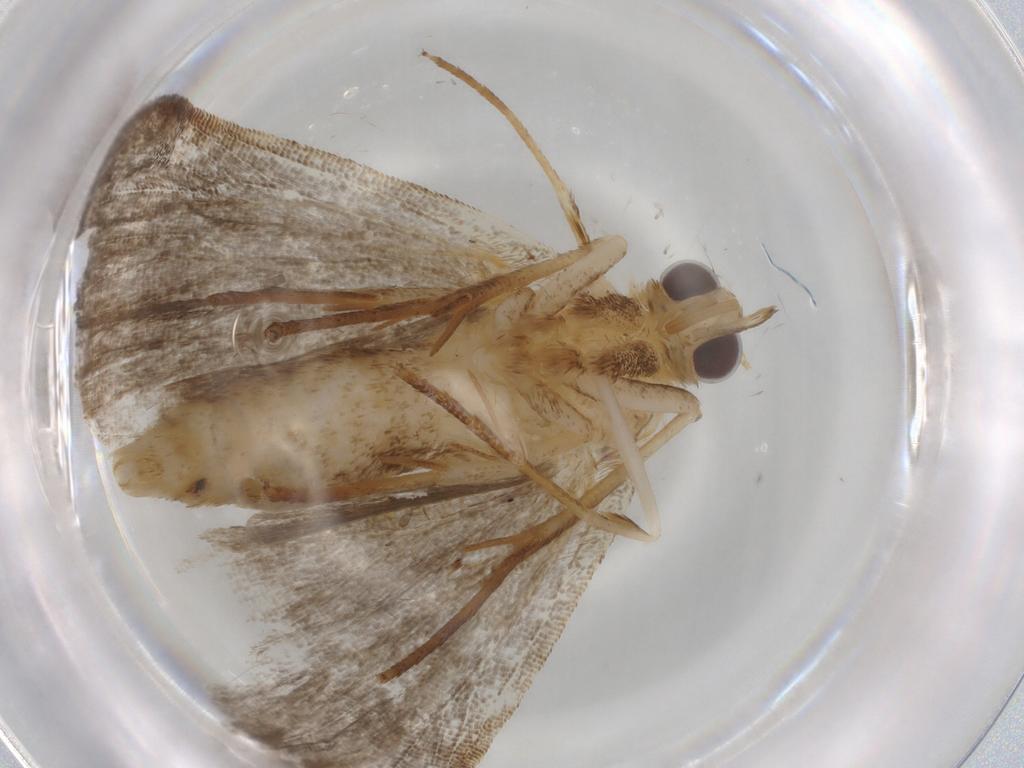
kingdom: Animalia
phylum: Arthropoda
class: Insecta
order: Lepidoptera
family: Erebidae
